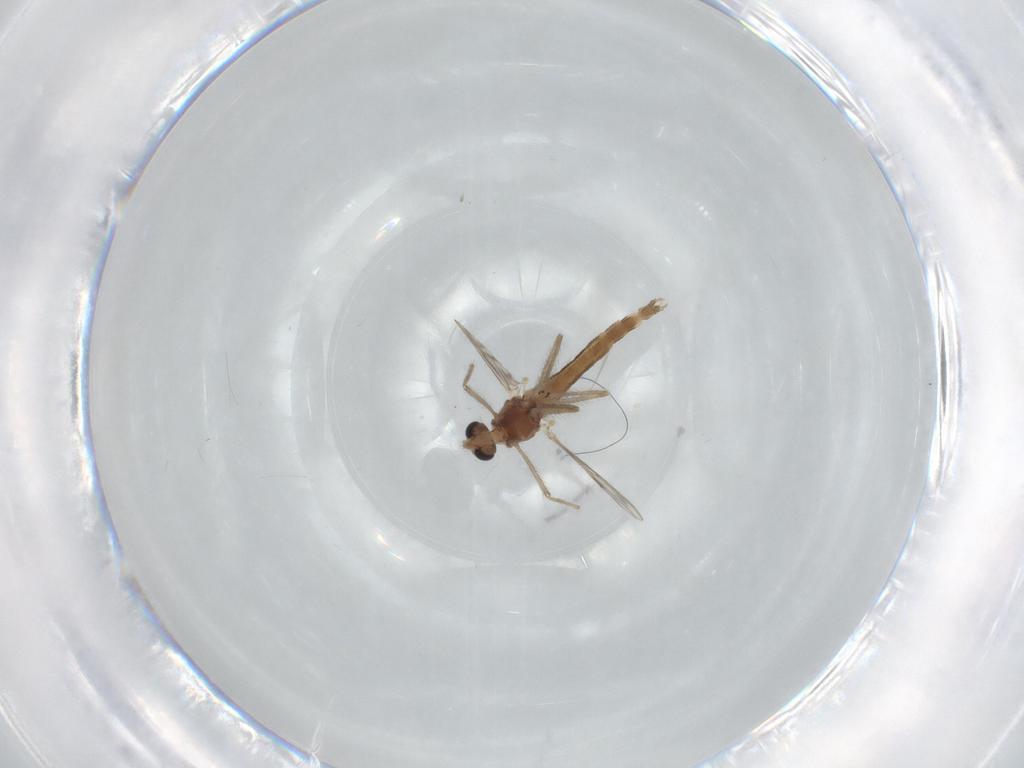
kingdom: Animalia
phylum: Arthropoda
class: Insecta
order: Diptera
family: Chironomidae
